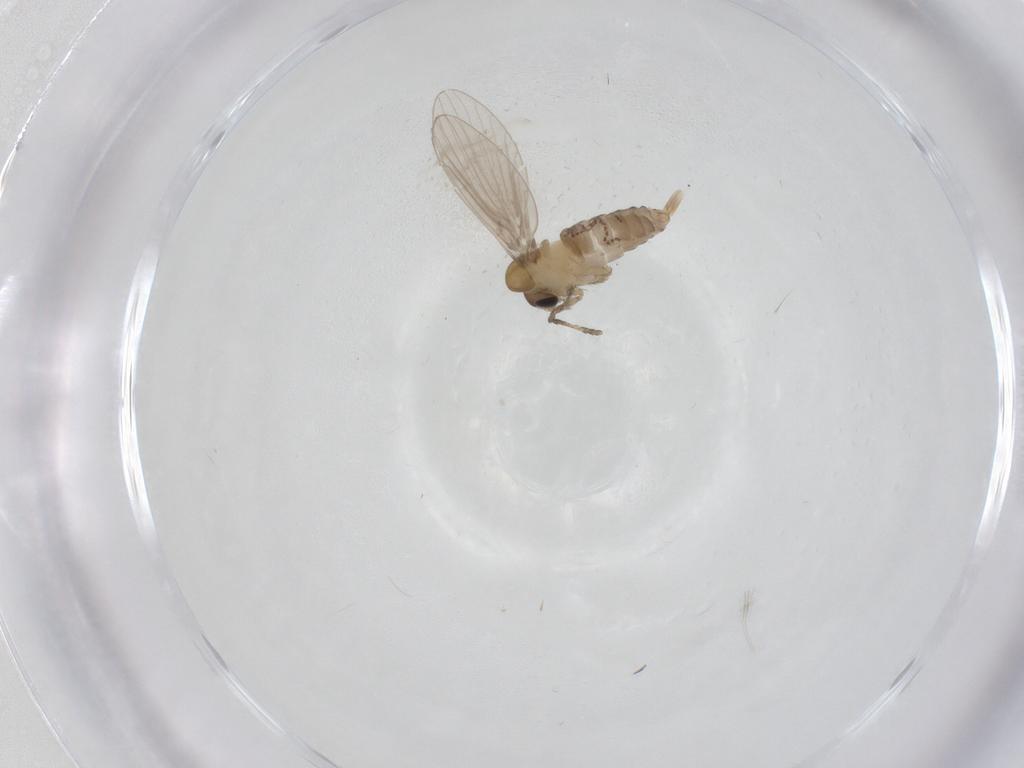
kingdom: Animalia
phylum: Arthropoda
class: Insecta
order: Diptera
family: Psychodidae
